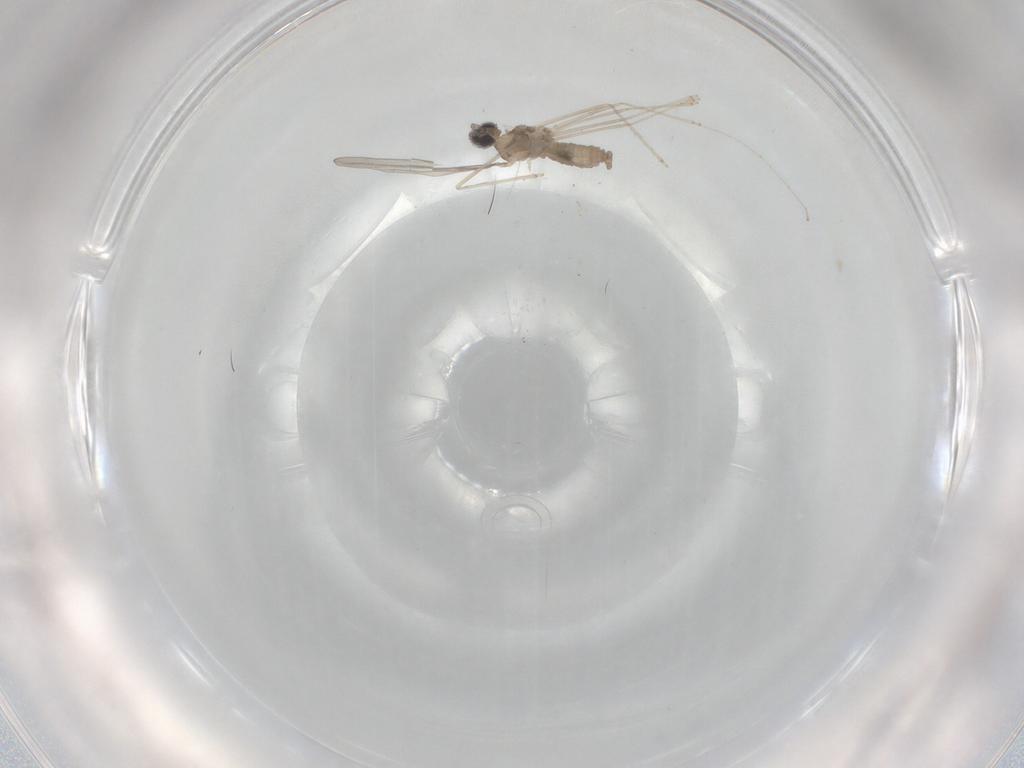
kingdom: Animalia
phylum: Arthropoda
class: Insecta
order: Diptera
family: Cecidomyiidae
